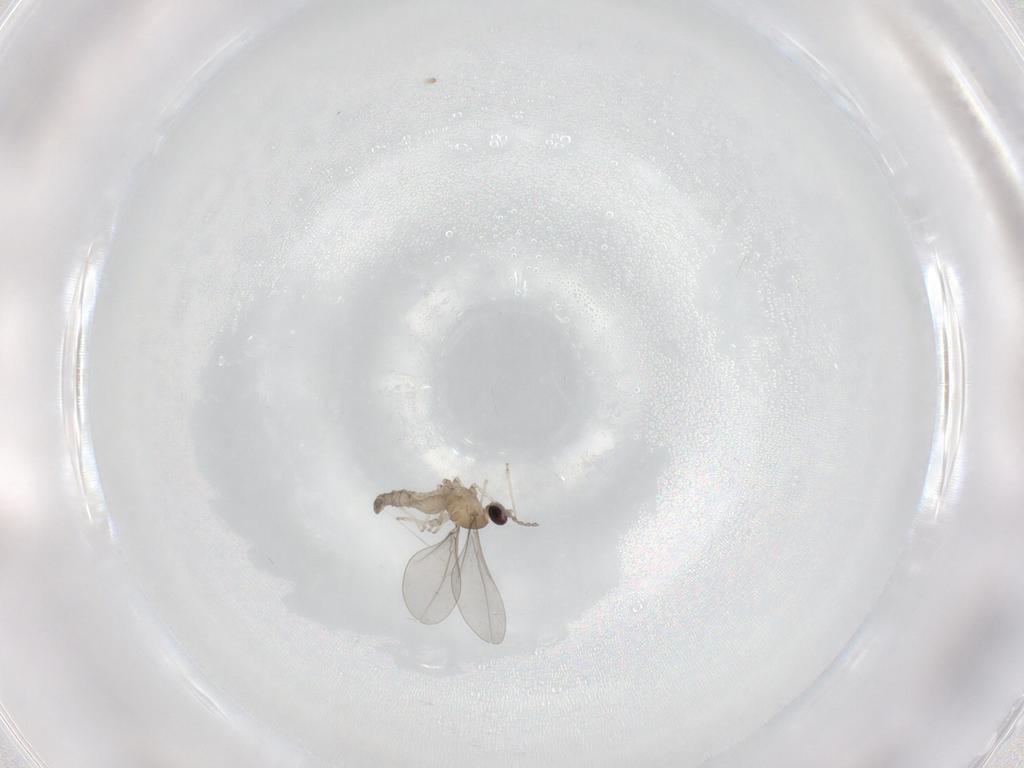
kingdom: Animalia
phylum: Arthropoda
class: Insecta
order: Diptera
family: Cecidomyiidae
